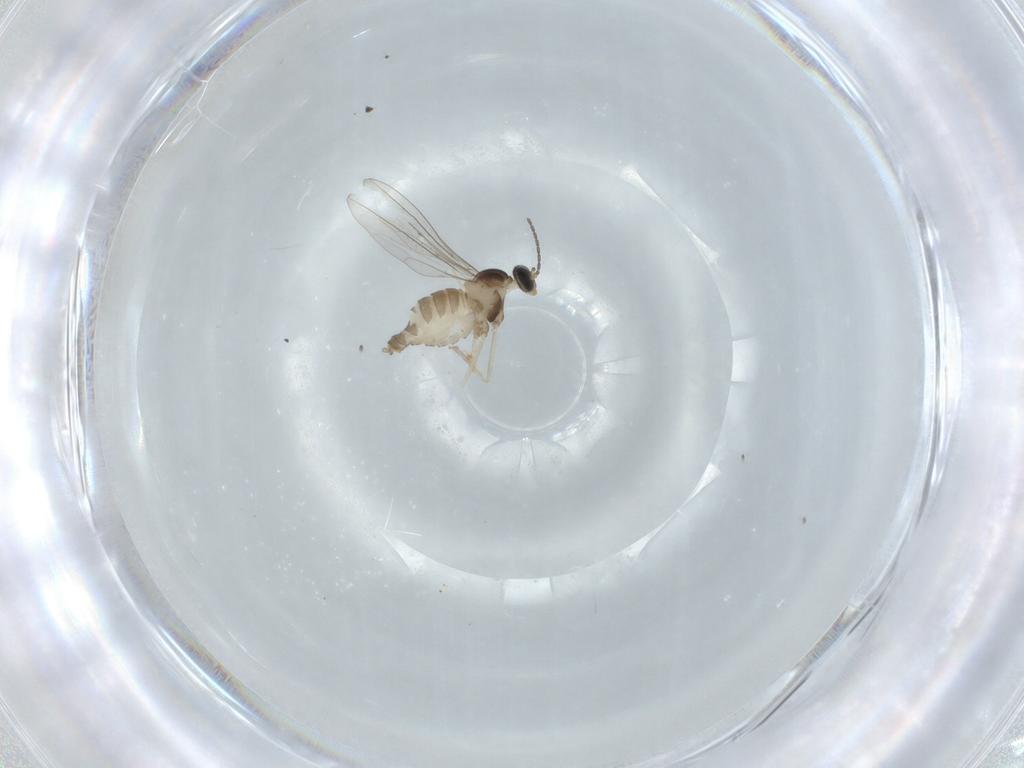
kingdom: Animalia
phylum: Arthropoda
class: Insecta
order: Diptera
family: Cecidomyiidae
